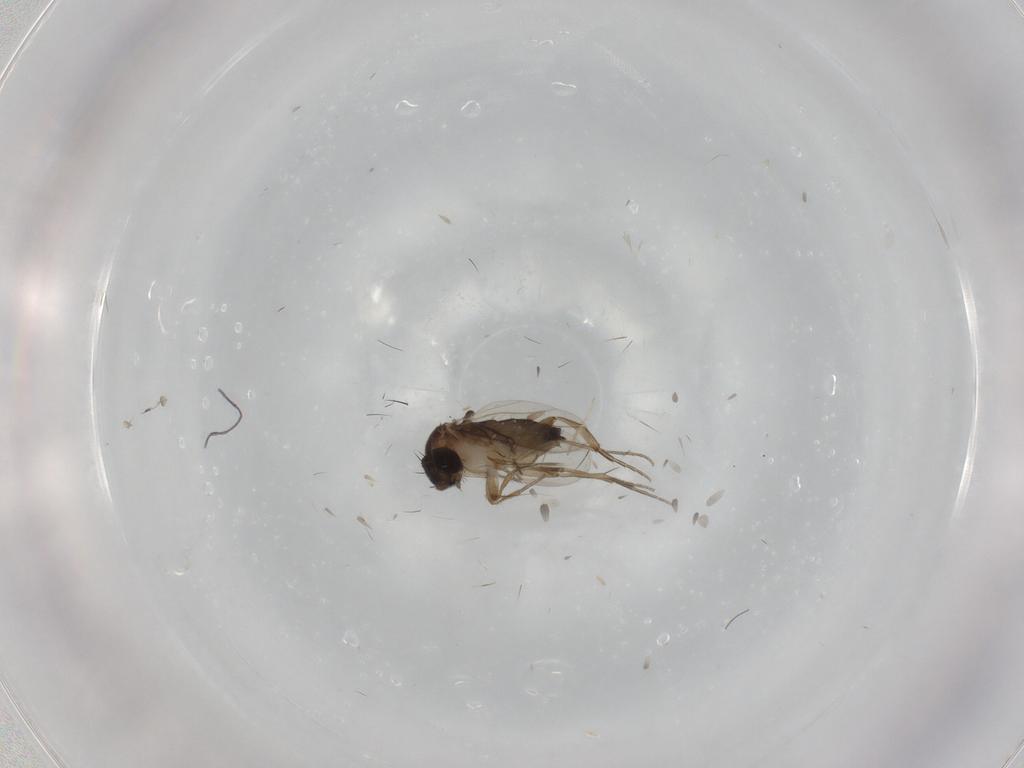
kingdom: Animalia
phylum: Arthropoda
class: Insecta
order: Diptera
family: Phoridae
